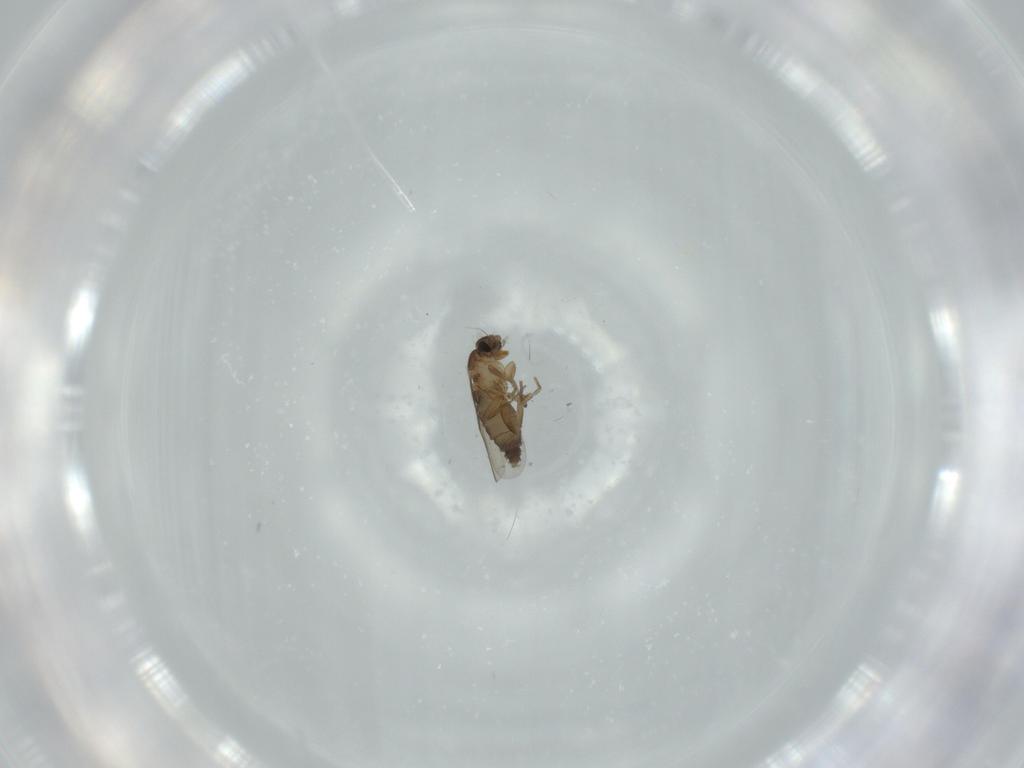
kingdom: Animalia
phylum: Arthropoda
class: Insecta
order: Diptera
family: Phoridae
